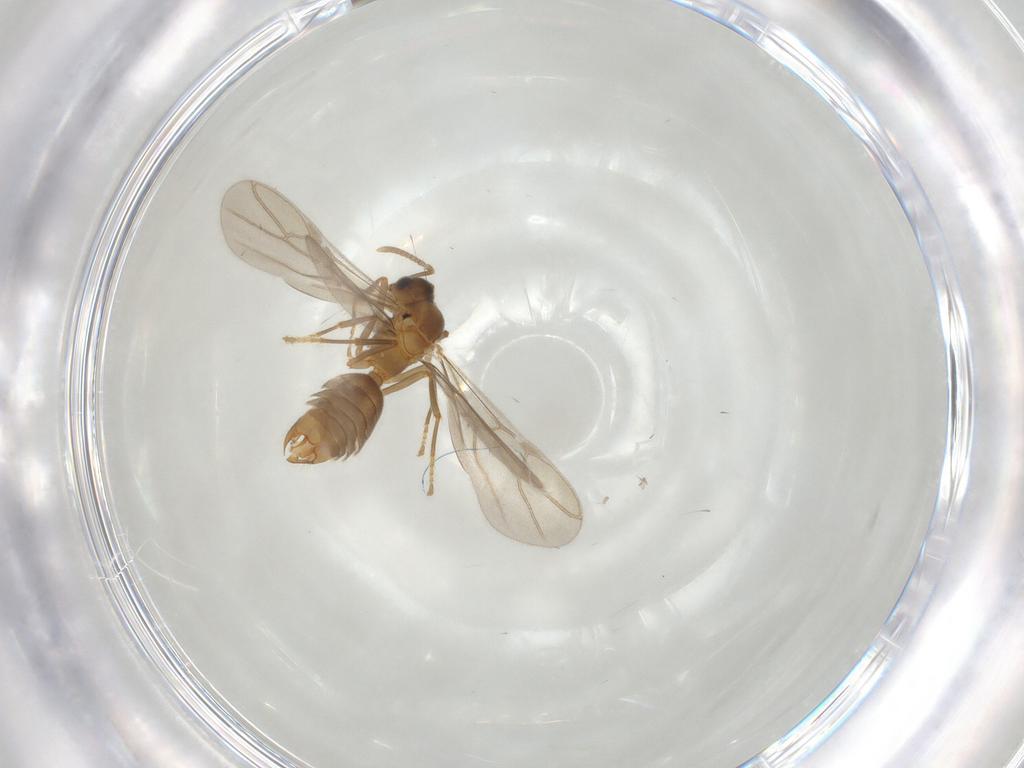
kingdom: Animalia
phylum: Arthropoda
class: Insecta
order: Hymenoptera
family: Formicidae
